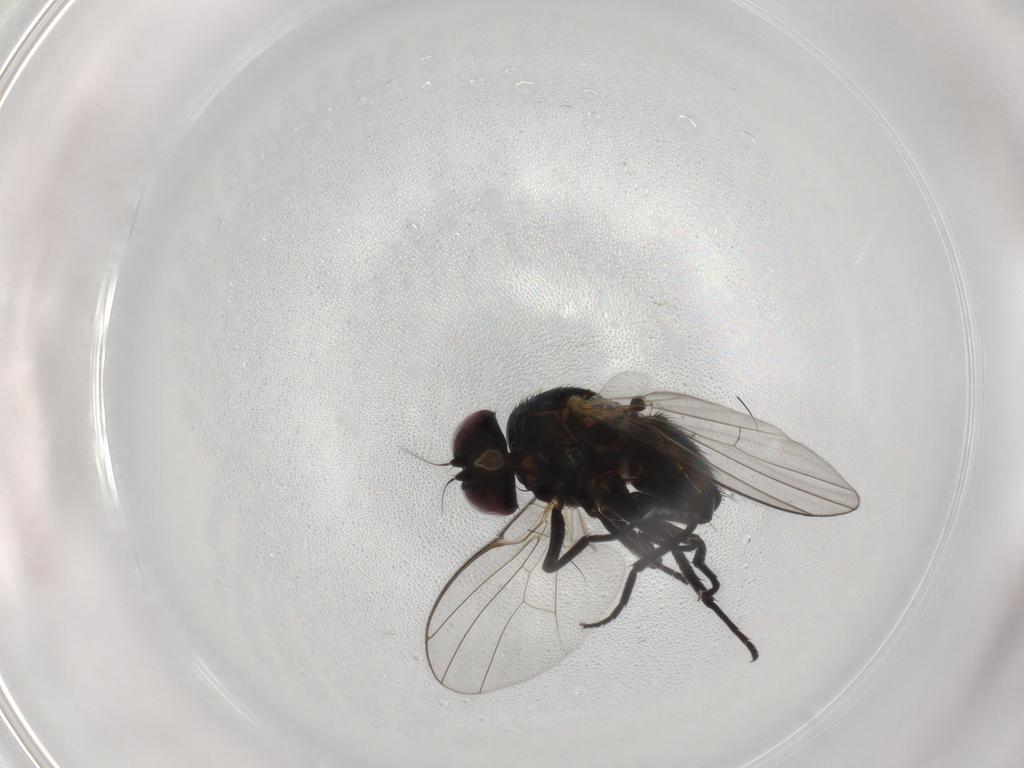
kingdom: Animalia
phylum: Arthropoda
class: Insecta
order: Diptera
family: Agromyzidae
